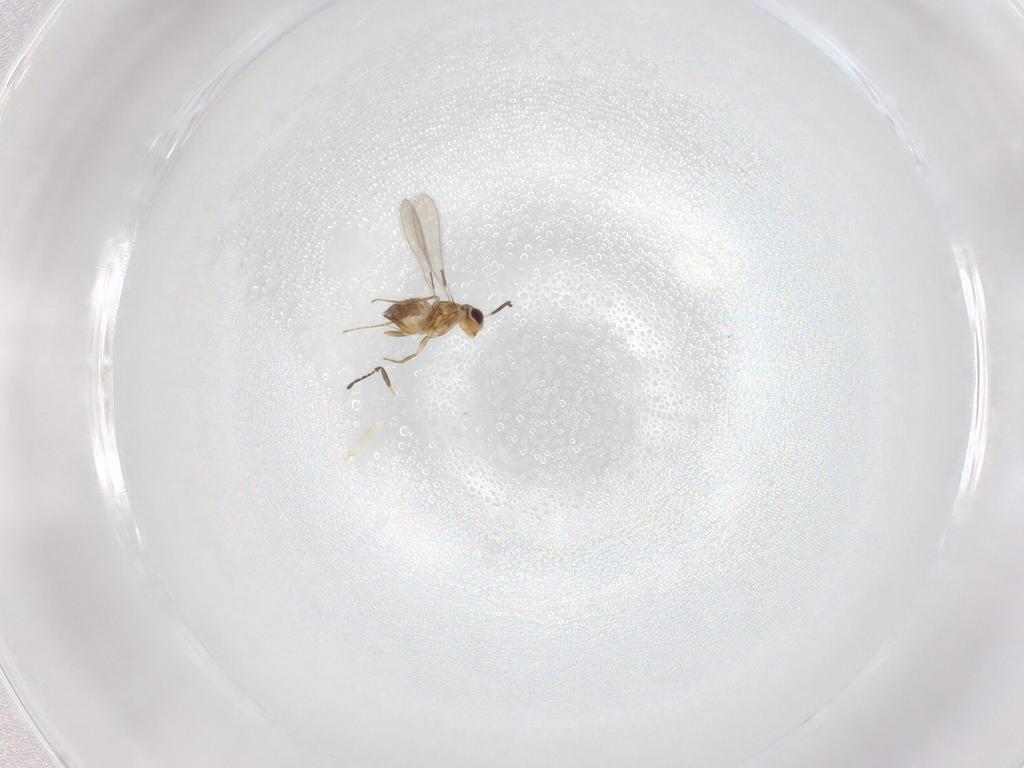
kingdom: Animalia
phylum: Arthropoda
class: Insecta
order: Hymenoptera
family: Mymaridae
